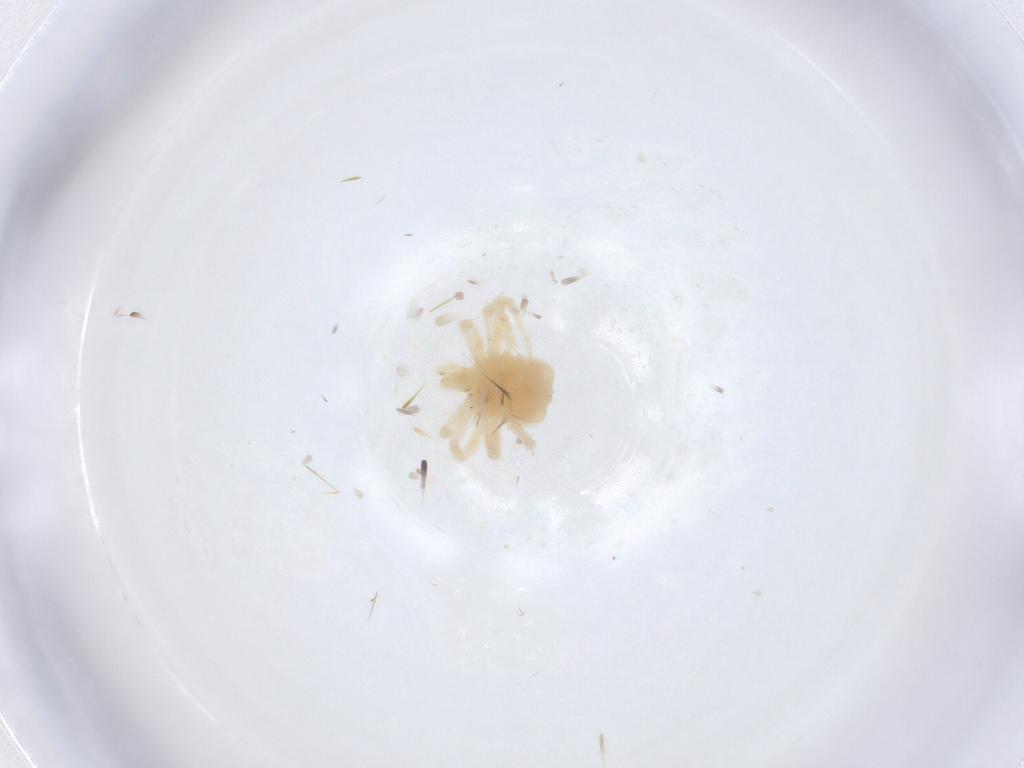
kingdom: Animalia
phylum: Arthropoda
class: Arachnida
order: Trombidiformes
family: Anystidae
